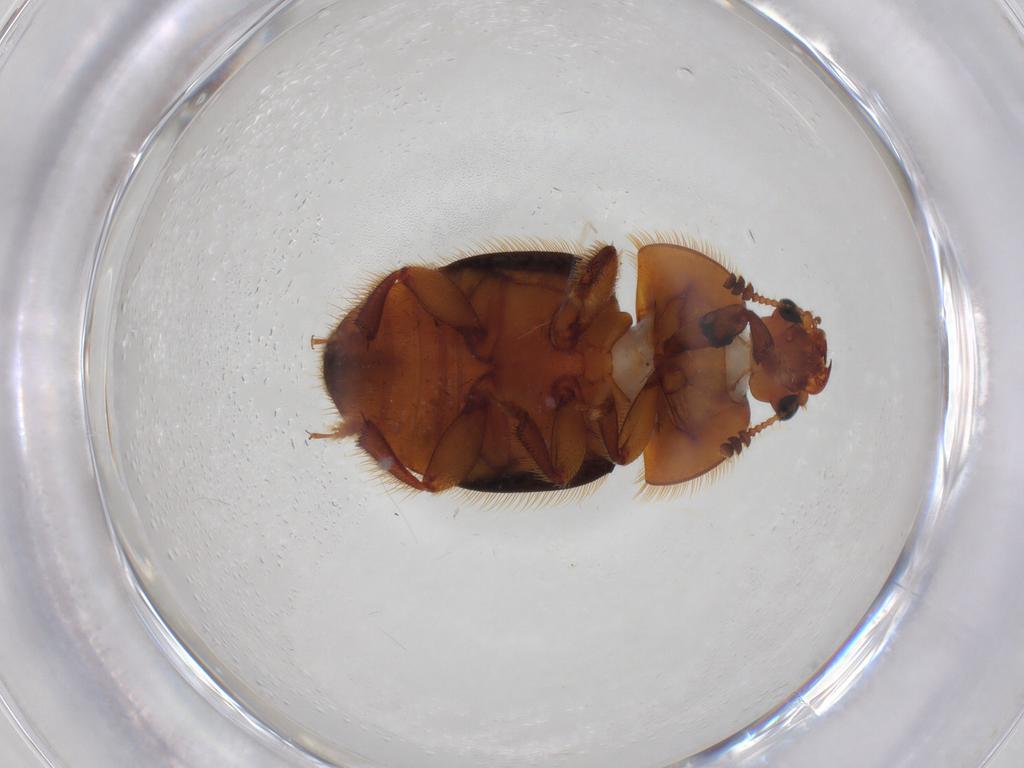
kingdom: Animalia
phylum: Arthropoda
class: Insecta
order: Coleoptera
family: Nitidulidae
